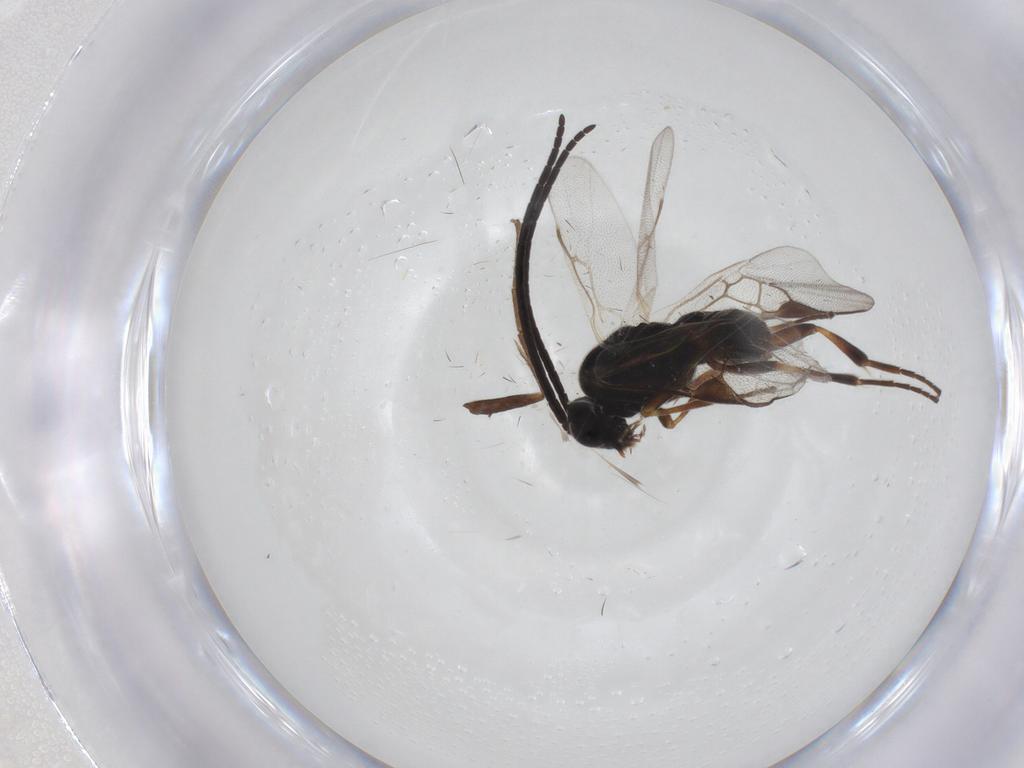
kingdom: Animalia
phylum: Arthropoda
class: Insecta
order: Hymenoptera
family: Braconidae
